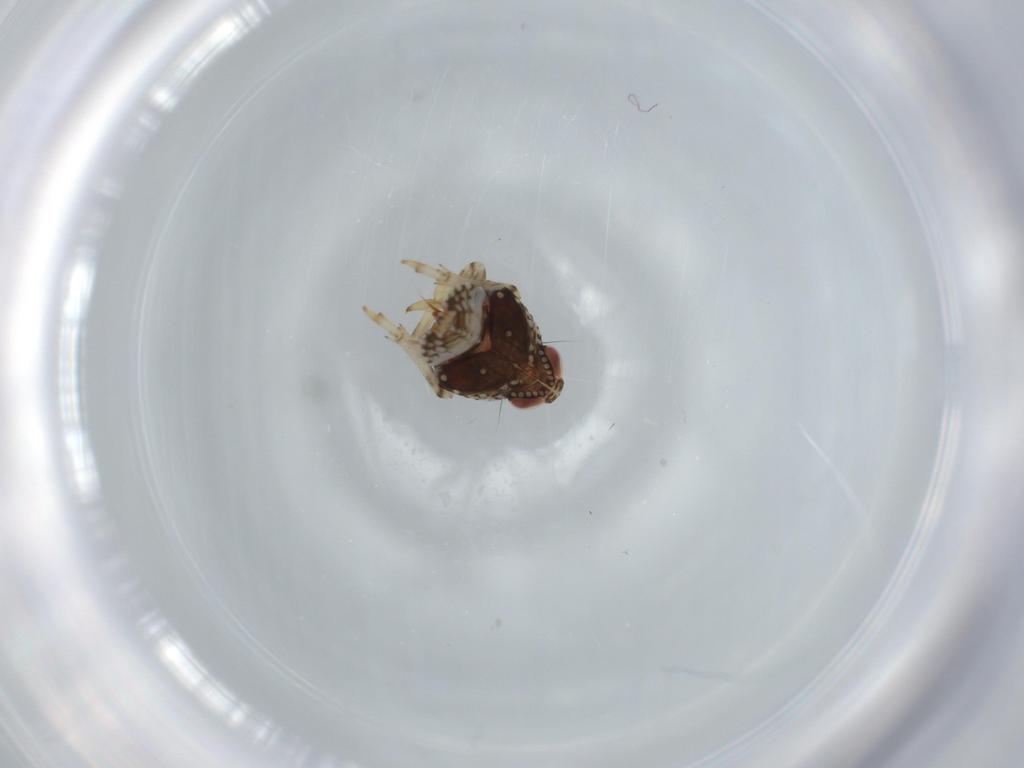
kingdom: Animalia
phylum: Arthropoda
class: Insecta
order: Hemiptera
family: Issidae
